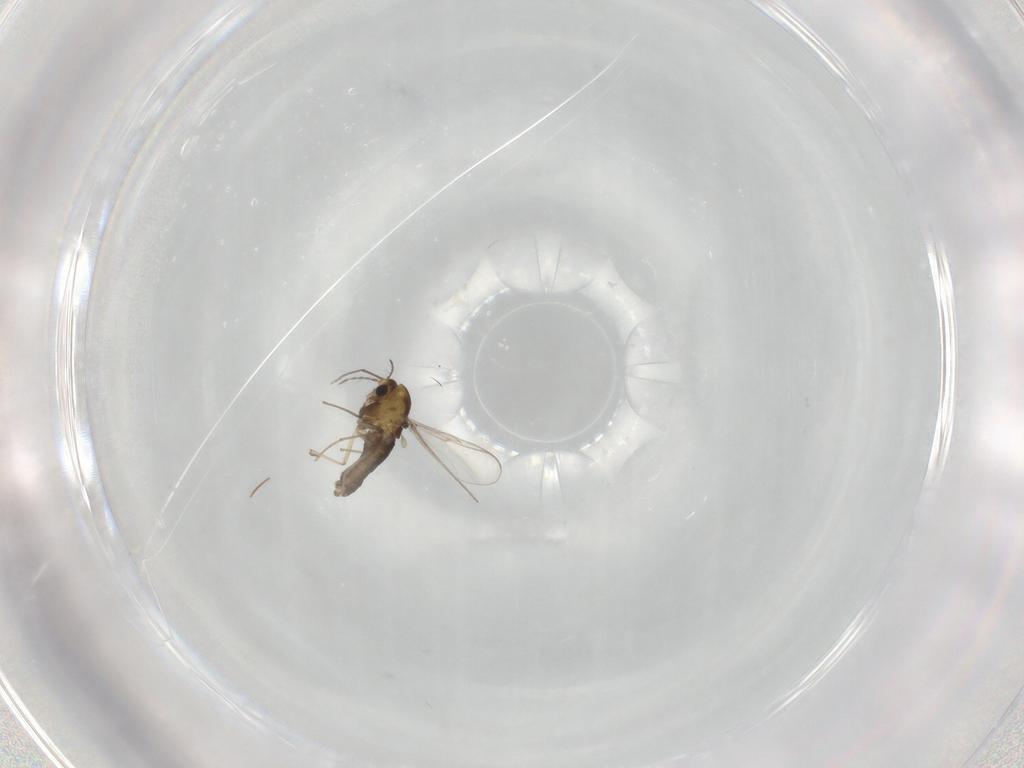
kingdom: Animalia
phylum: Arthropoda
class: Insecta
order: Diptera
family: Chironomidae
